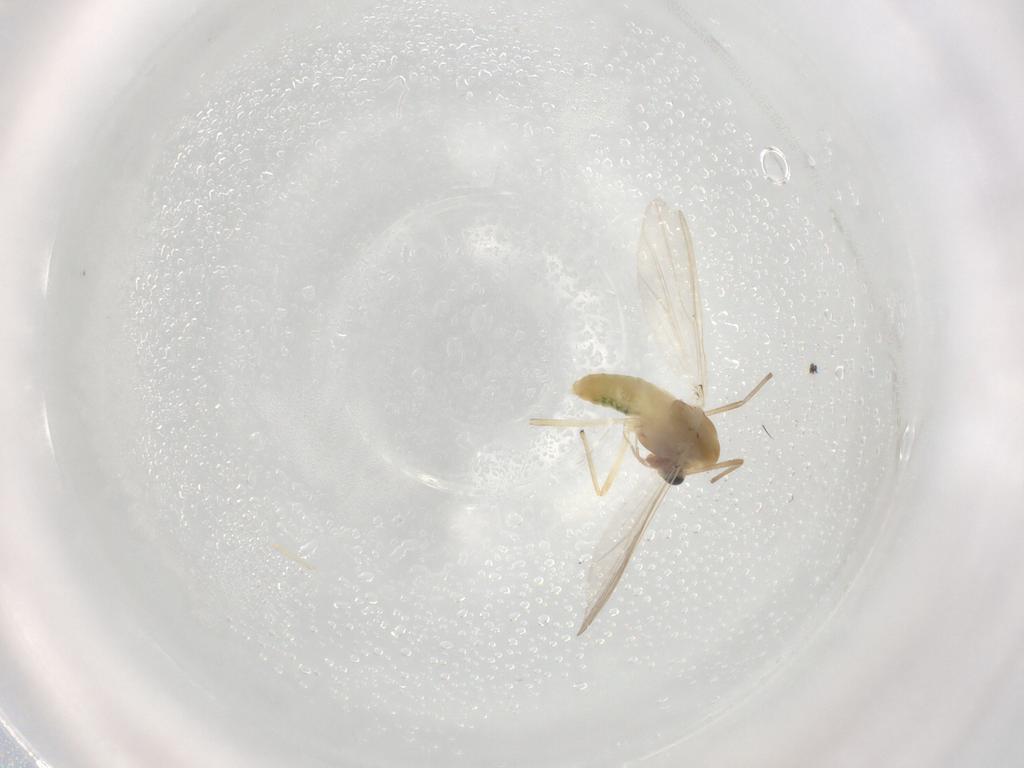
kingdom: Animalia
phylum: Arthropoda
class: Insecta
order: Diptera
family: Chironomidae
